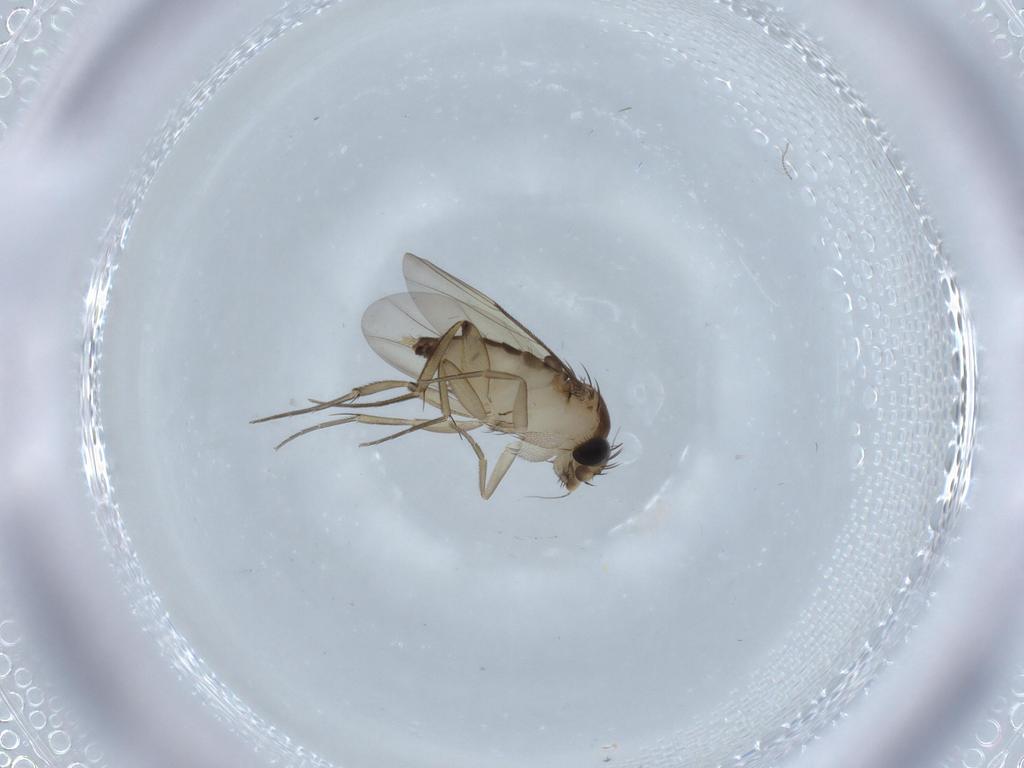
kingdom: Animalia
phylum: Arthropoda
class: Insecta
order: Diptera
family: Phoridae
